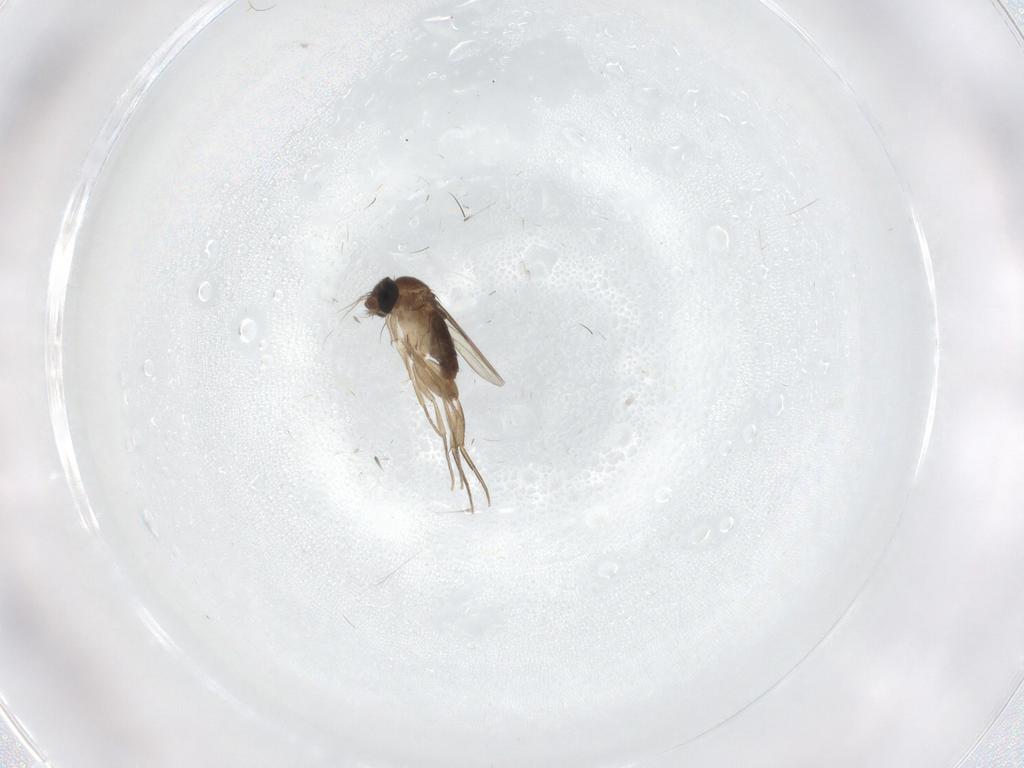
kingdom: Animalia
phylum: Arthropoda
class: Insecta
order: Diptera
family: Phoridae
